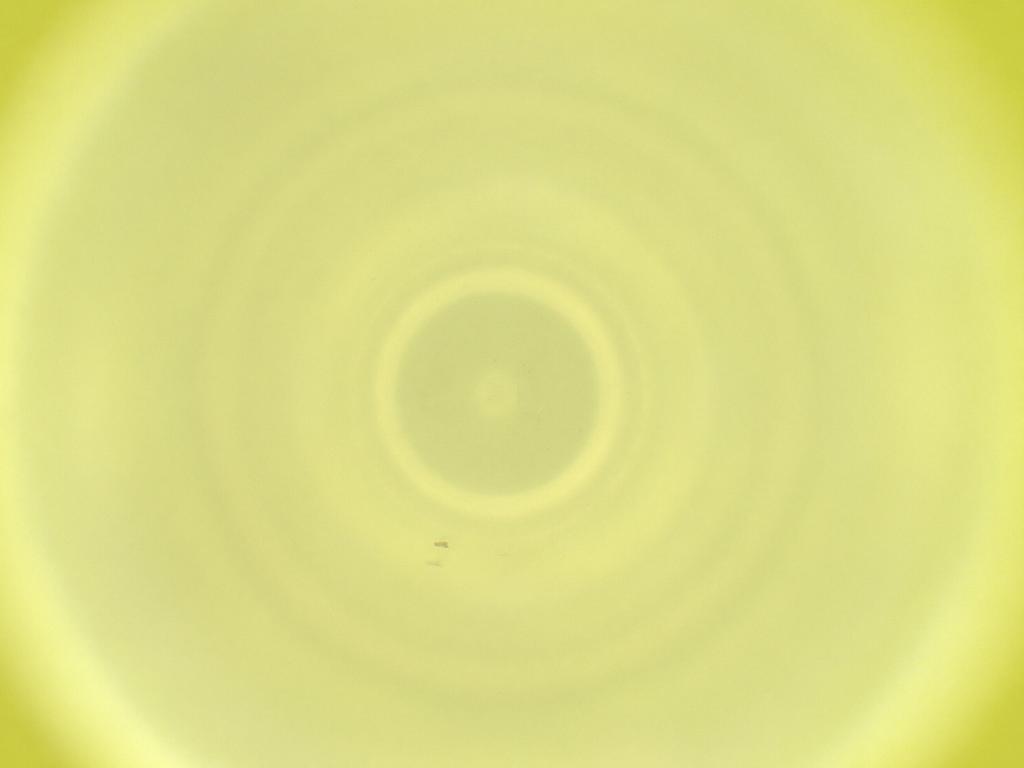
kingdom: Animalia
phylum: Arthropoda
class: Insecta
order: Diptera
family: Cecidomyiidae
